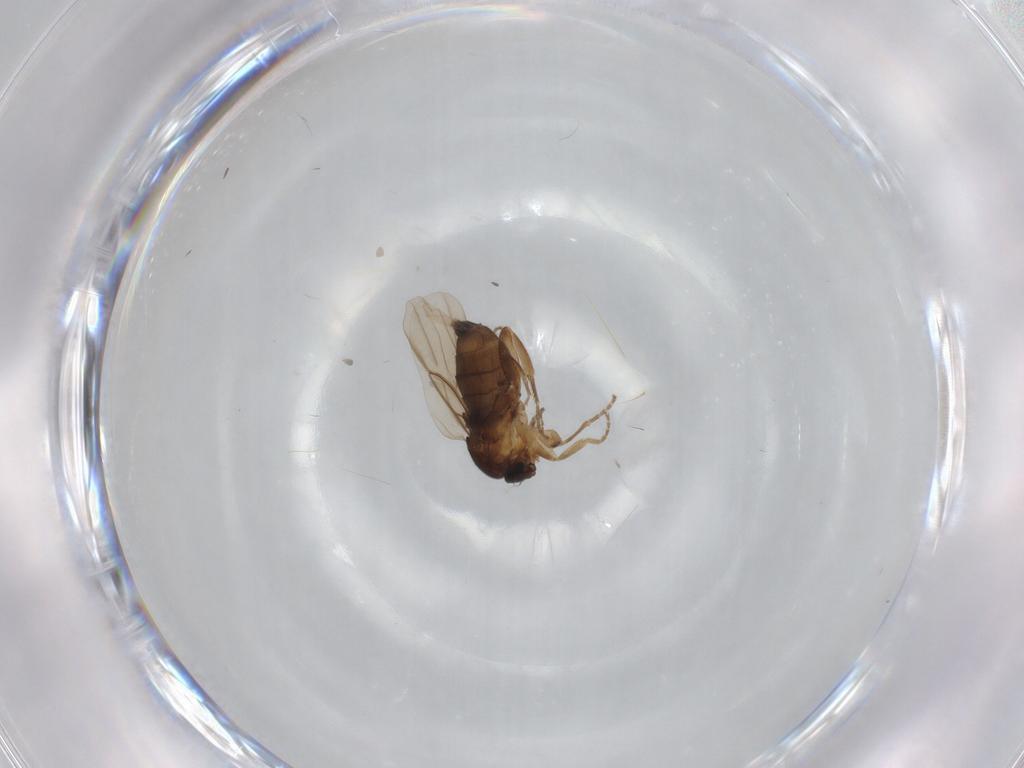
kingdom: Animalia
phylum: Arthropoda
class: Insecta
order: Diptera
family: Phoridae
